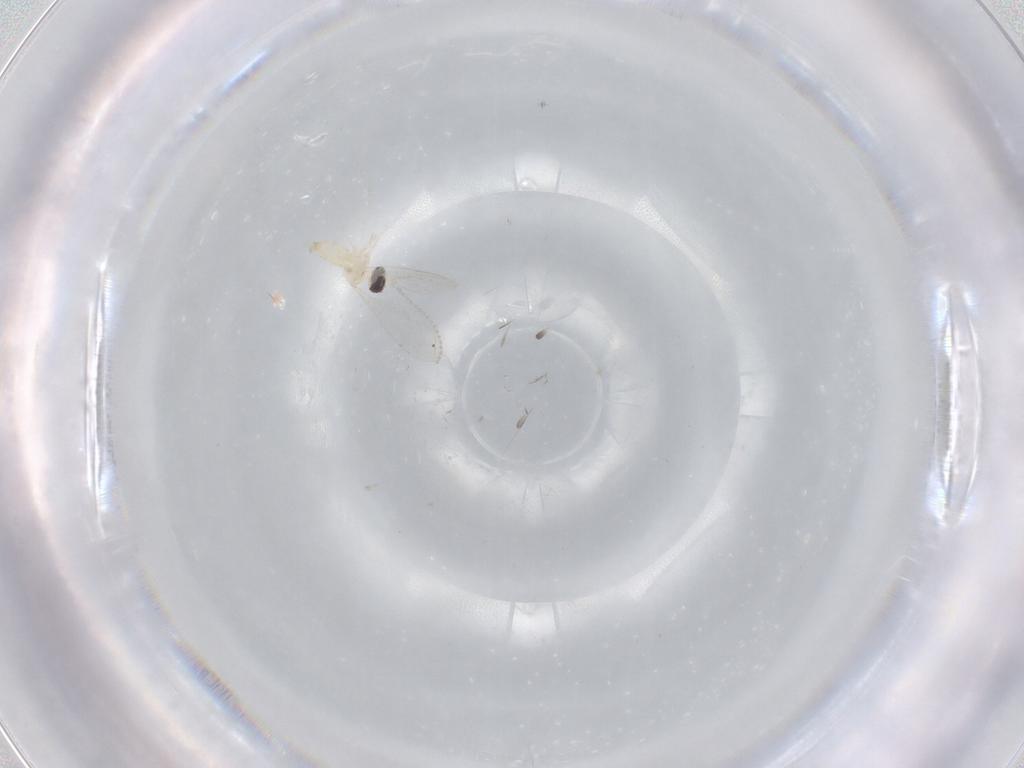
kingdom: Animalia
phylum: Arthropoda
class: Insecta
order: Diptera
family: Cecidomyiidae
